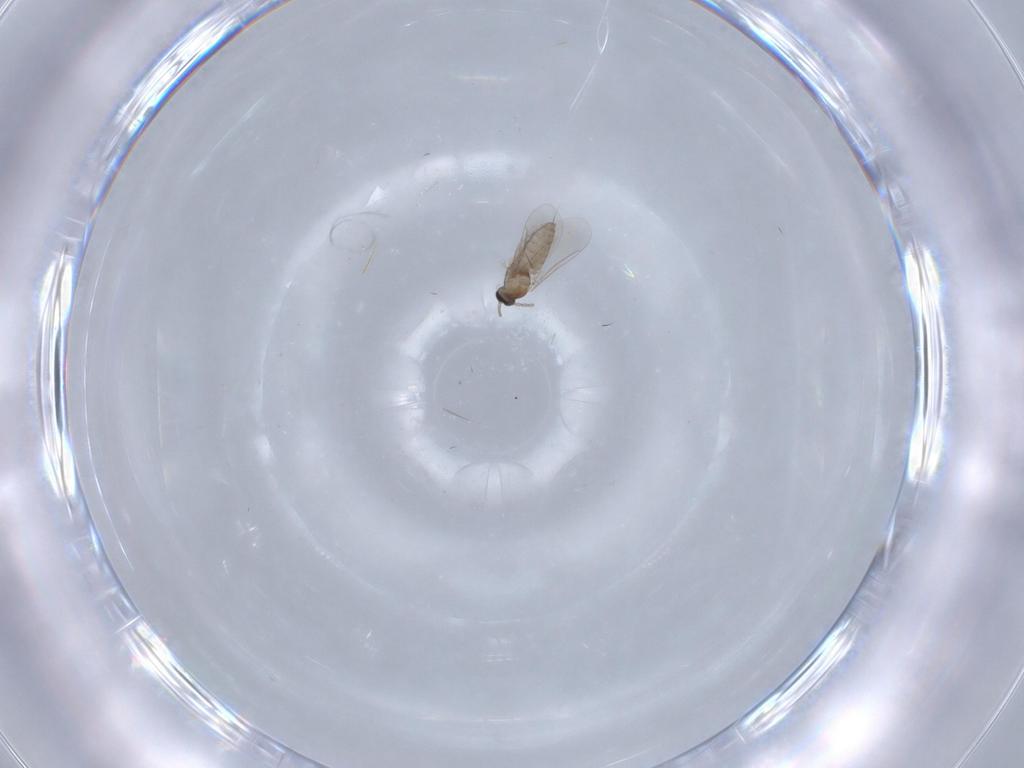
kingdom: Animalia
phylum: Arthropoda
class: Insecta
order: Diptera
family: Cecidomyiidae
